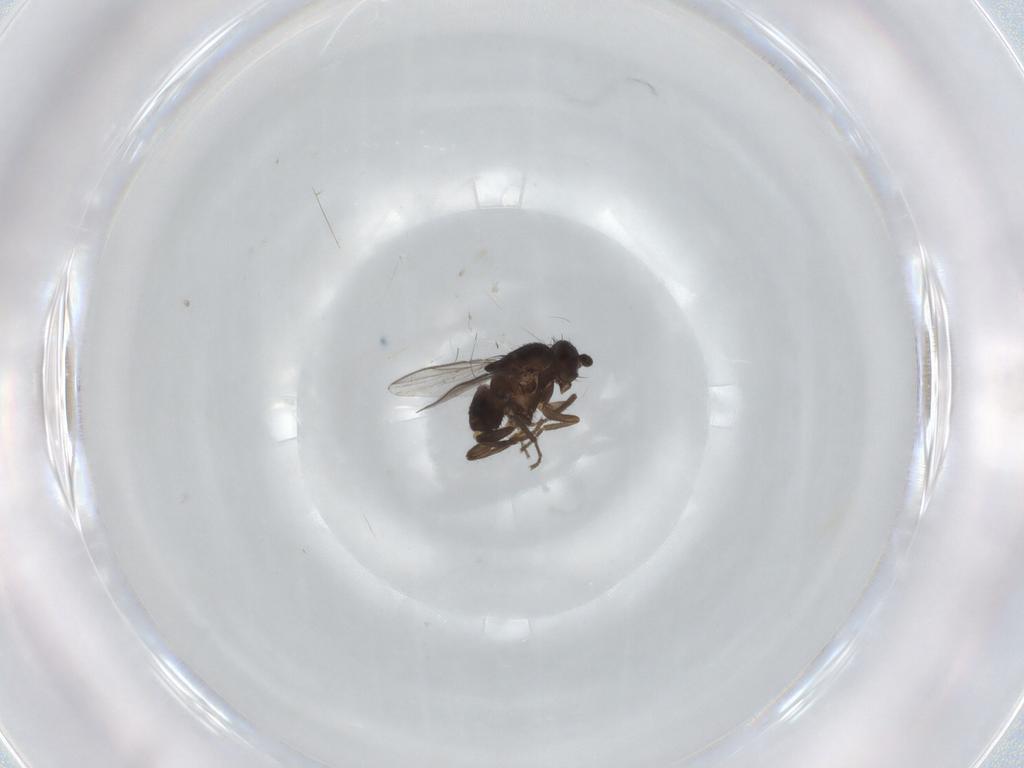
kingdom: Animalia
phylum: Arthropoda
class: Insecta
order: Diptera
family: Sphaeroceridae
